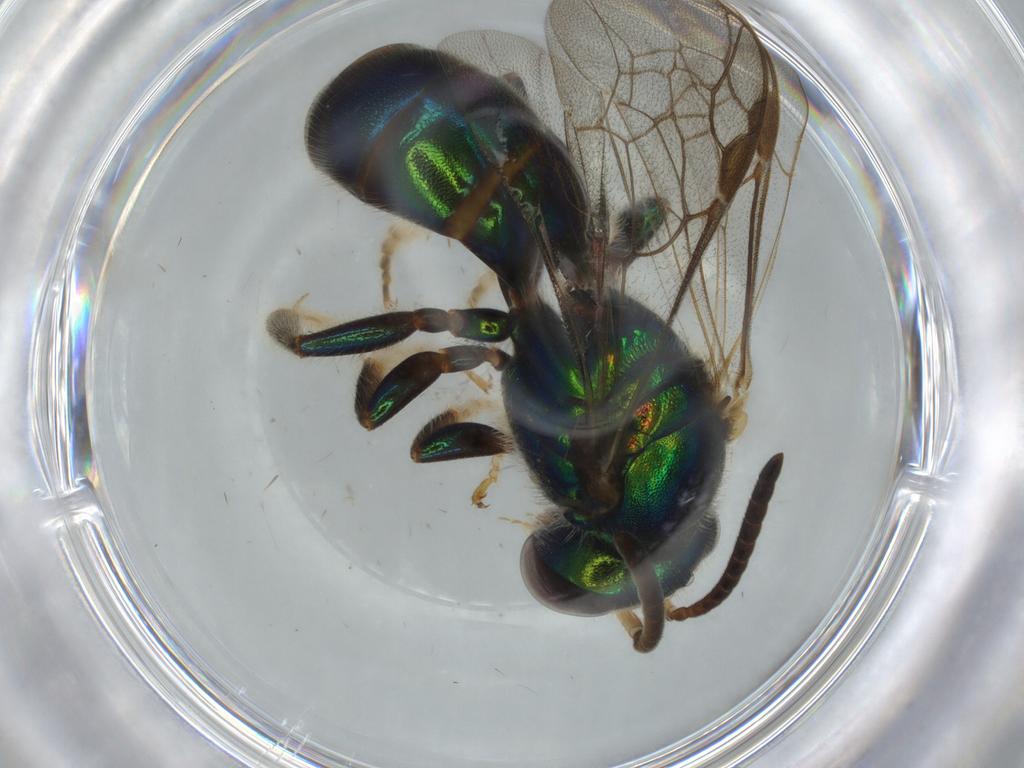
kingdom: Animalia
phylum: Arthropoda
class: Insecta
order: Hymenoptera
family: Halictidae
